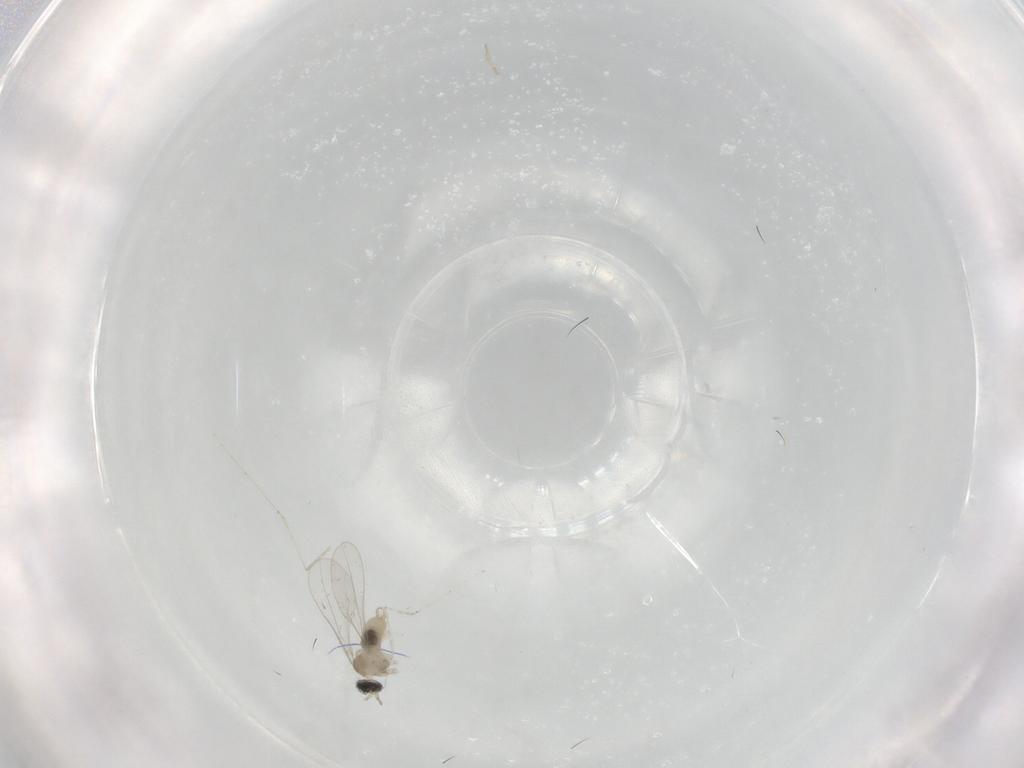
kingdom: Animalia
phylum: Arthropoda
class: Insecta
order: Diptera
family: Cecidomyiidae
